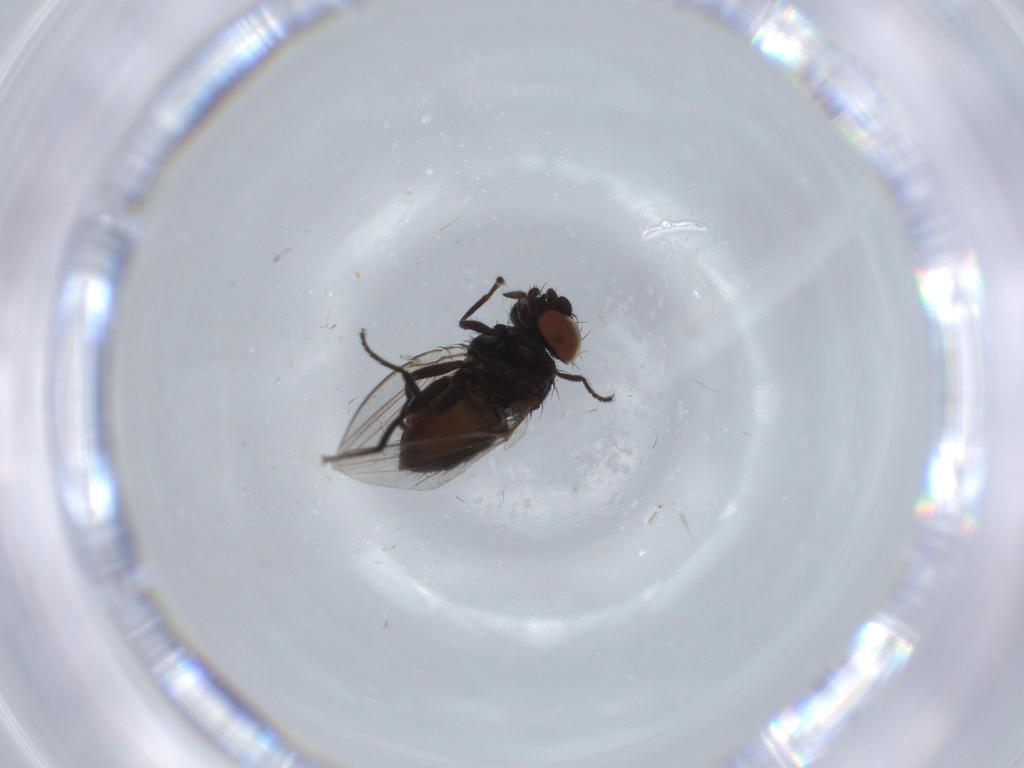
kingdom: Animalia
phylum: Arthropoda
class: Insecta
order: Diptera
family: Milichiidae
